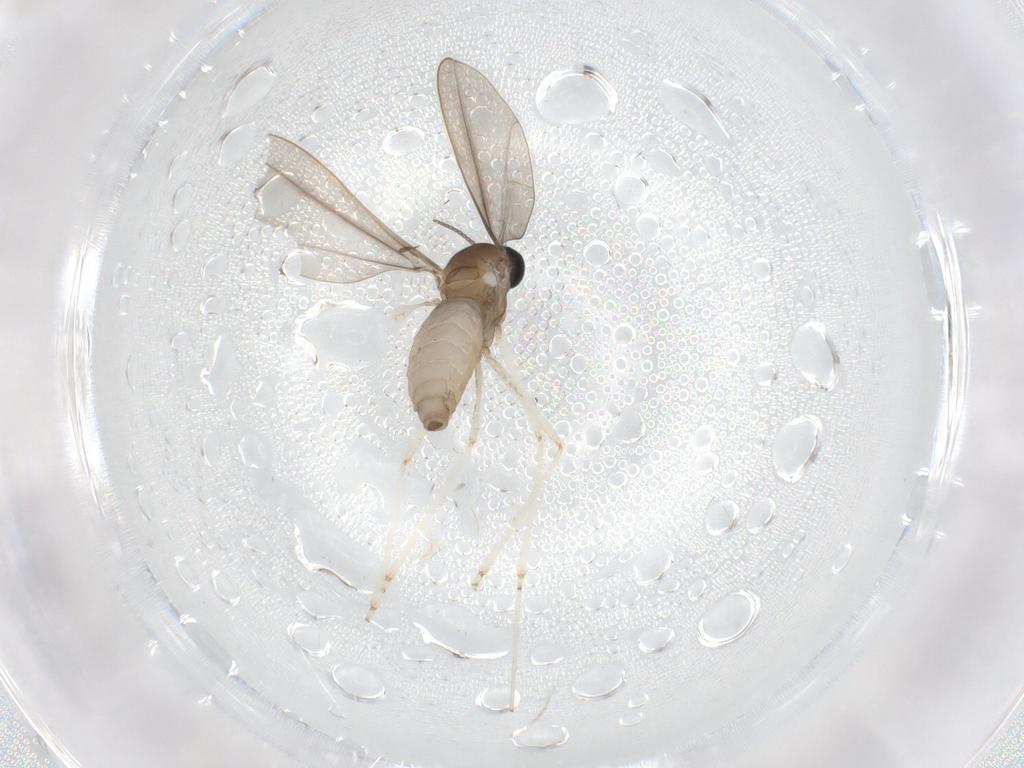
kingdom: Animalia
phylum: Arthropoda
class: Insecta
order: Diptera
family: Cecidomyiidae
